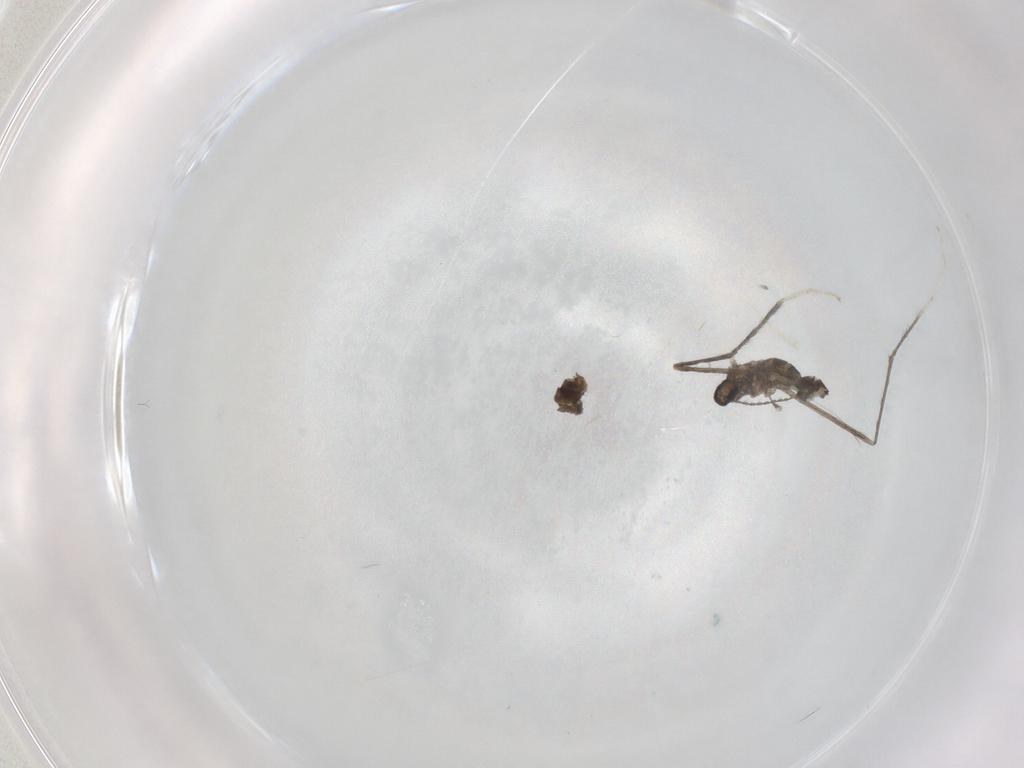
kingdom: Animalia
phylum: Arthropoda
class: Insecta
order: Diptera
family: Cecidomyiidae
